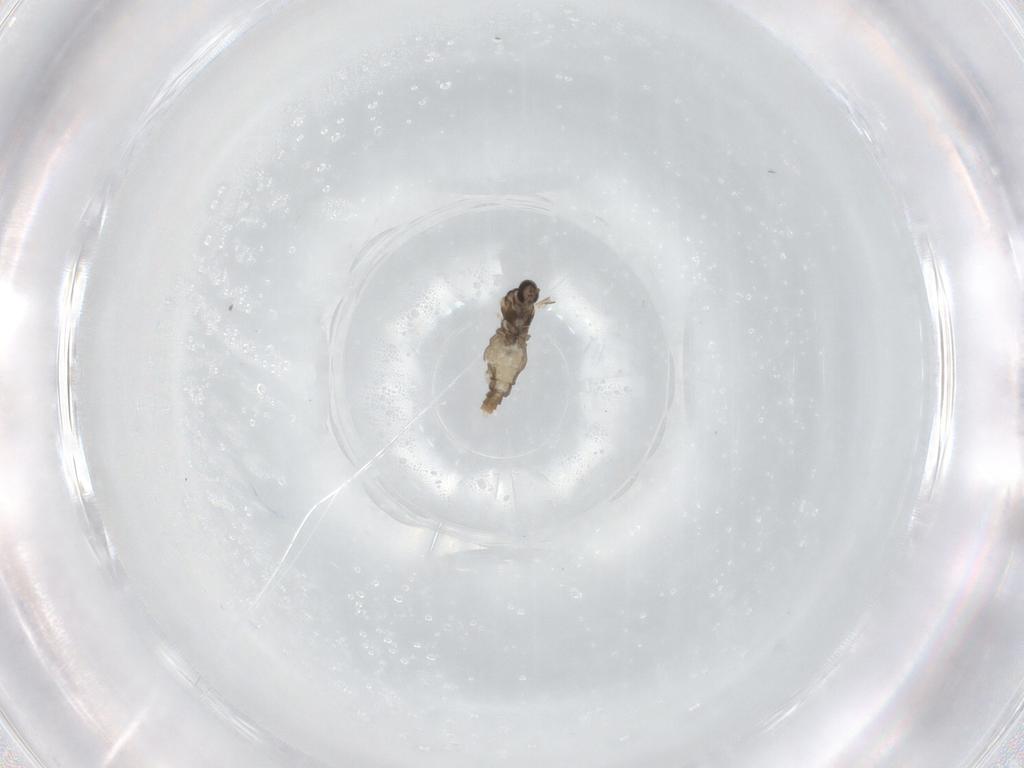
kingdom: Animalia
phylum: Arthropoda
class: Insecta
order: Diptera
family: Cecidomyiidae
